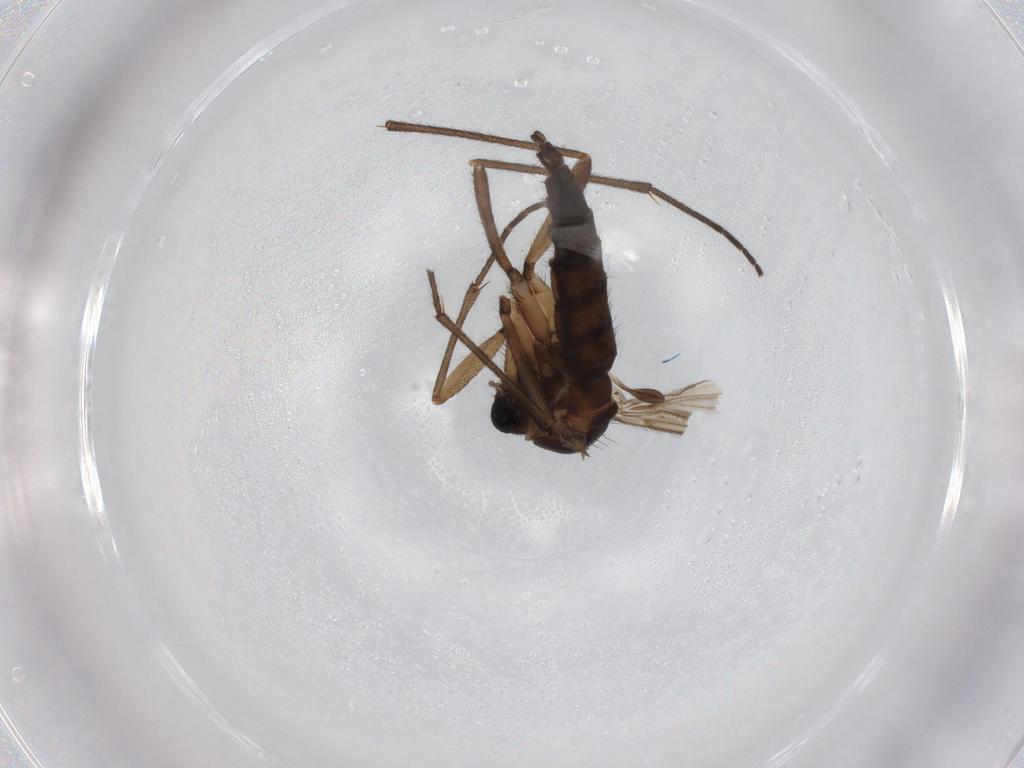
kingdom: Animalia
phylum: Arthropoda
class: Insecta
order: Diptera
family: Sciaridae
